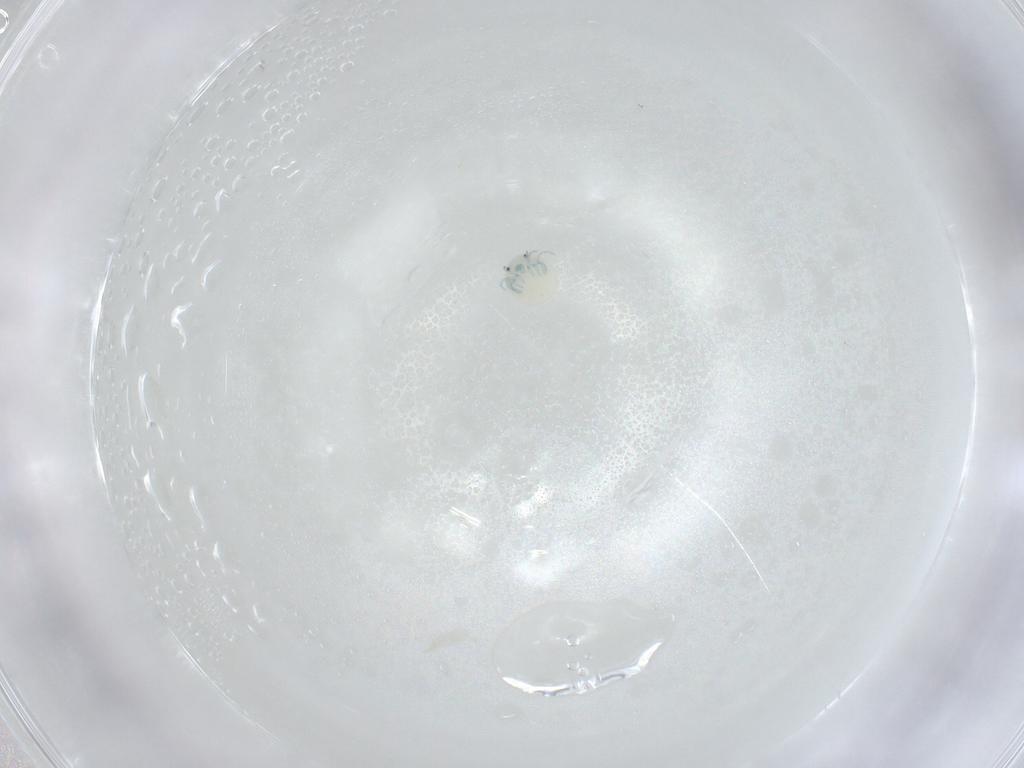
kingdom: Animalia
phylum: Arthropoda
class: Arachnida
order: Trombidiformes
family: Arrenuridae
